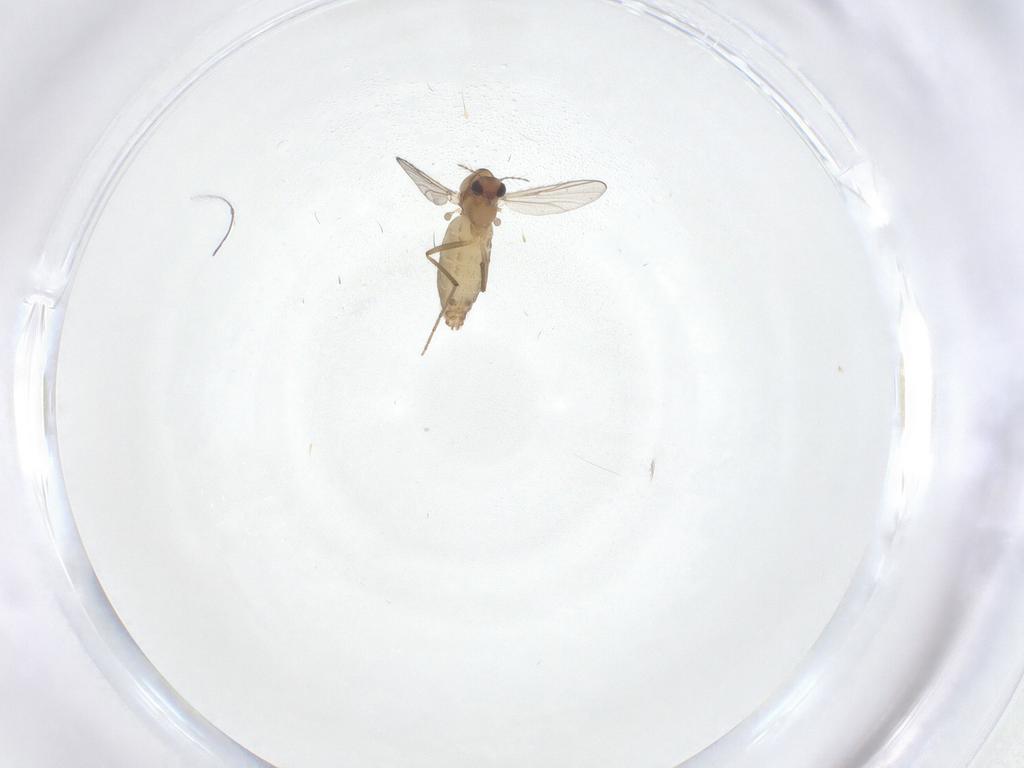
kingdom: Animalia
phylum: Arthropoda
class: Insecta
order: Diptera
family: Chironomidae
